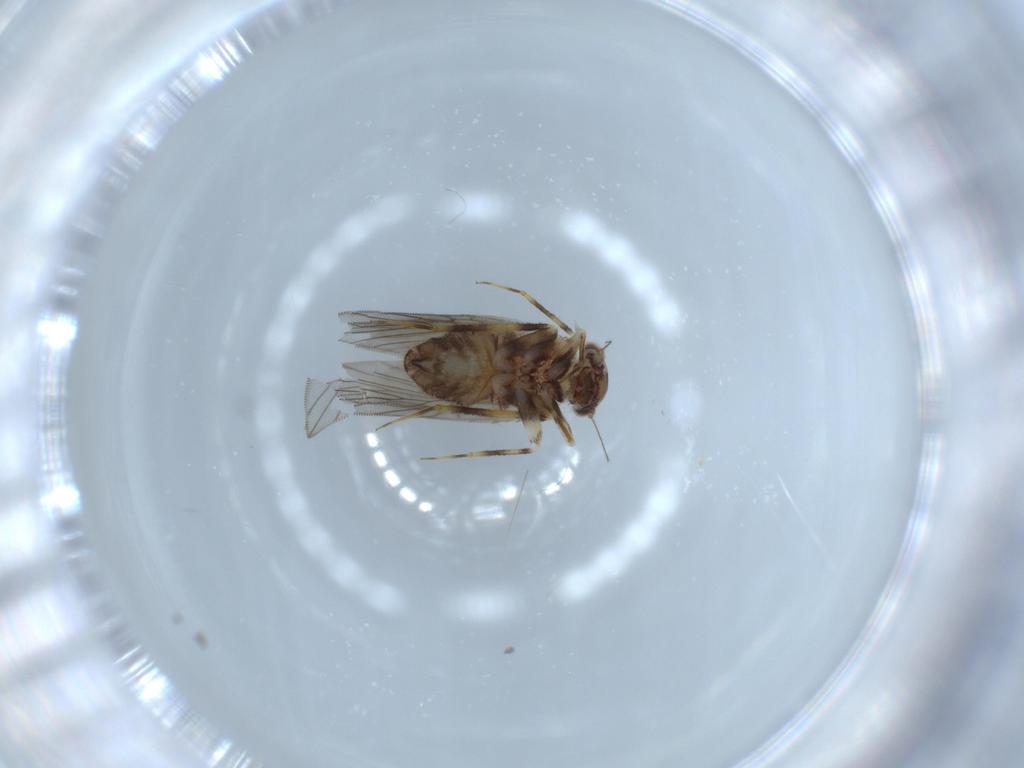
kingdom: Animalia
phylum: Arthropoda
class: Insecta
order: Psocodea
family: Lepidopsocidae
